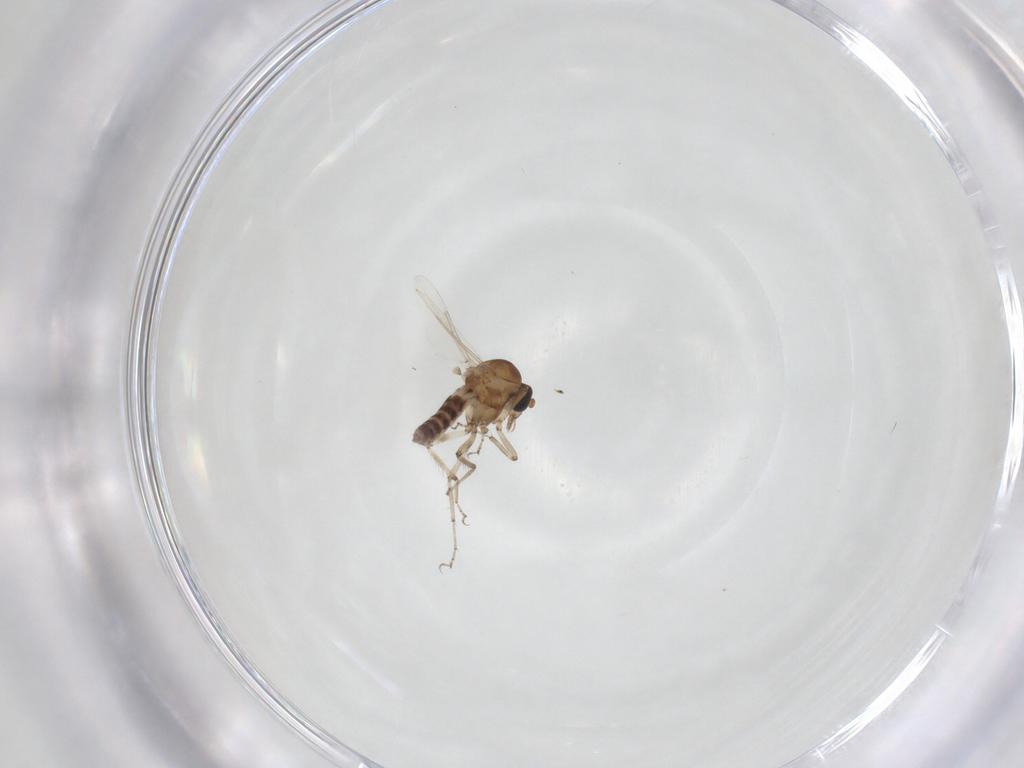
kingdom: Animalia
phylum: Arthropoda
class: Insecta
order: Diptera
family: Ceratopogonidae
